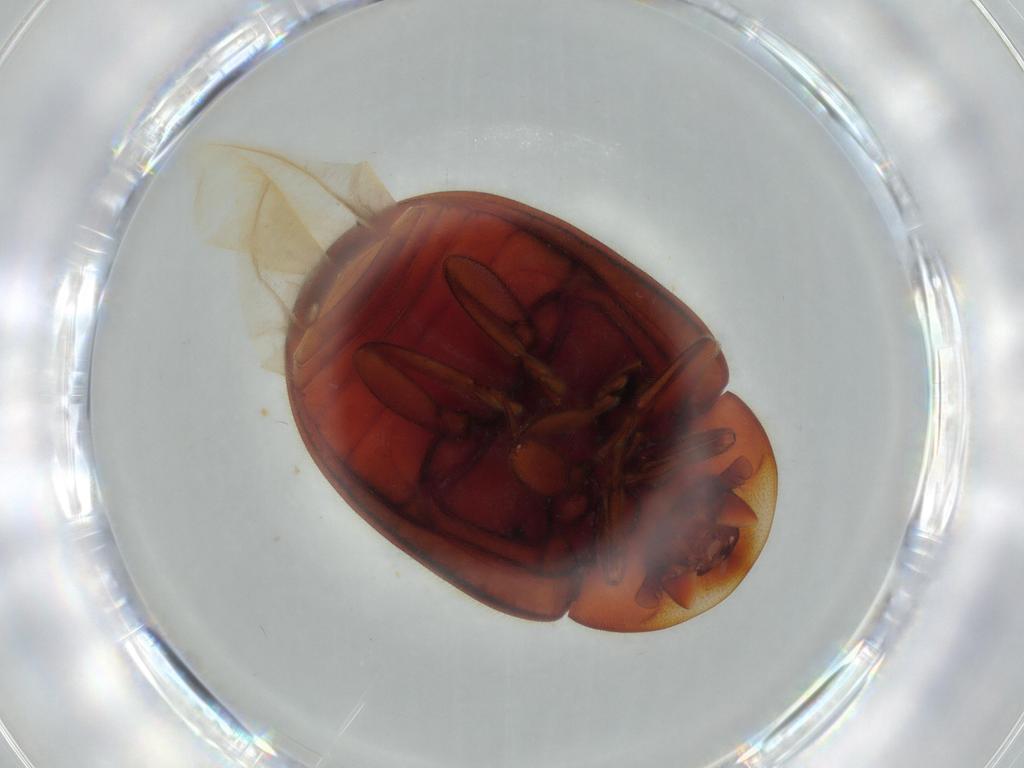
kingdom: Animalia
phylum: Arthropoda
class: Insecta
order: Coleoptera
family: Coccinellidae
